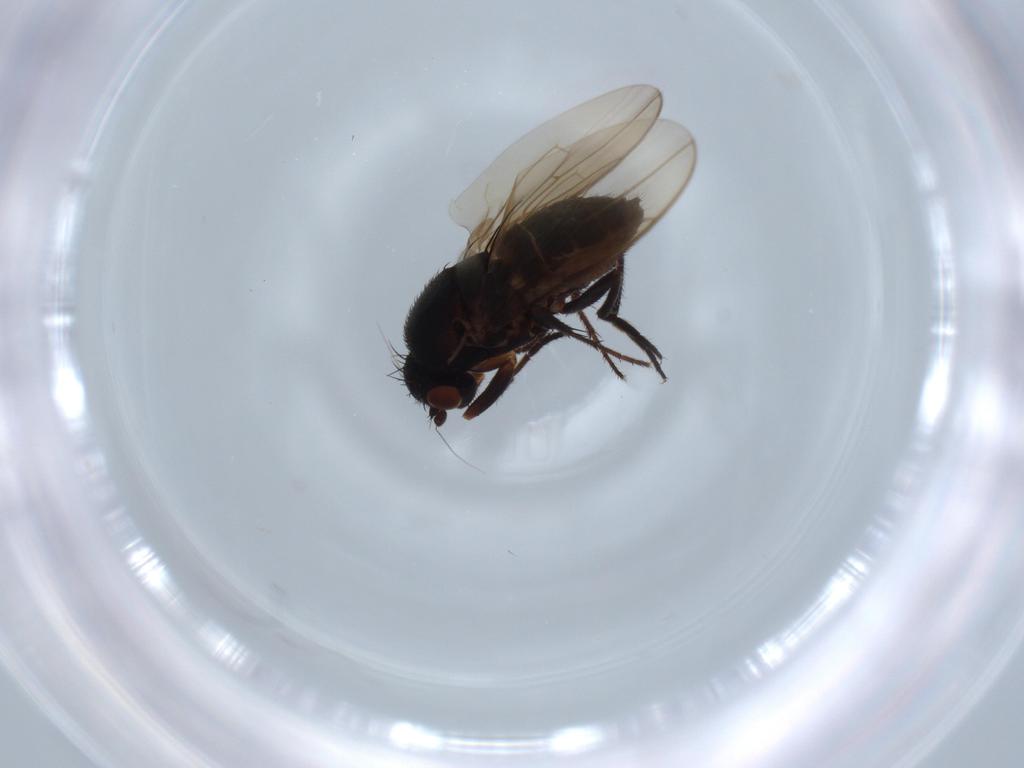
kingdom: Animalia
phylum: Arthropoda
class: Insecta
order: Diptera
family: Sphaeroceridae
